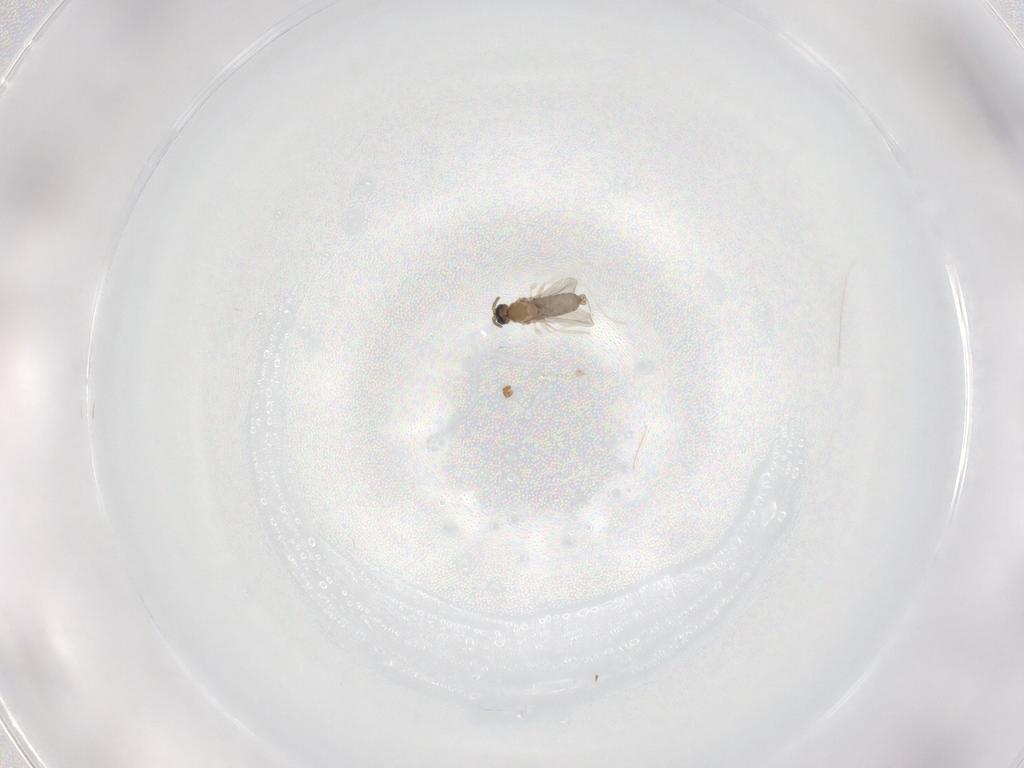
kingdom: Animalia
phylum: Arthropoda
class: Insecta
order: Diptera
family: Cecidomyiidae
